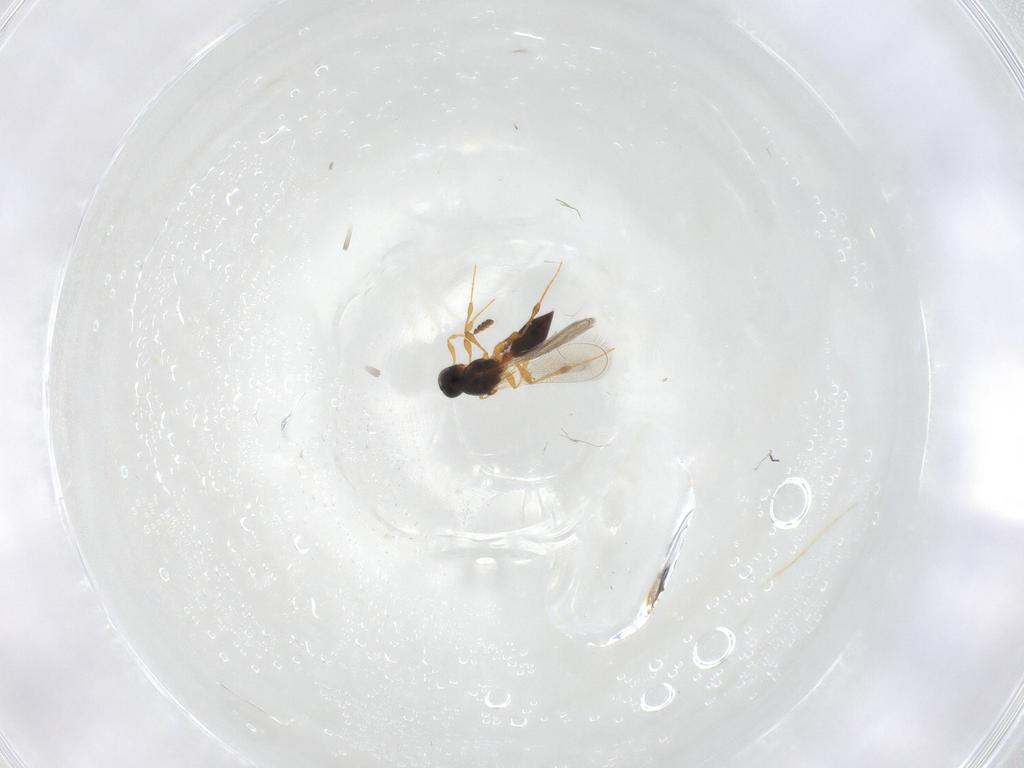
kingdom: Animalia
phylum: Arthropoda
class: Insecta
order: Hymenoptera
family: Platygastridae
